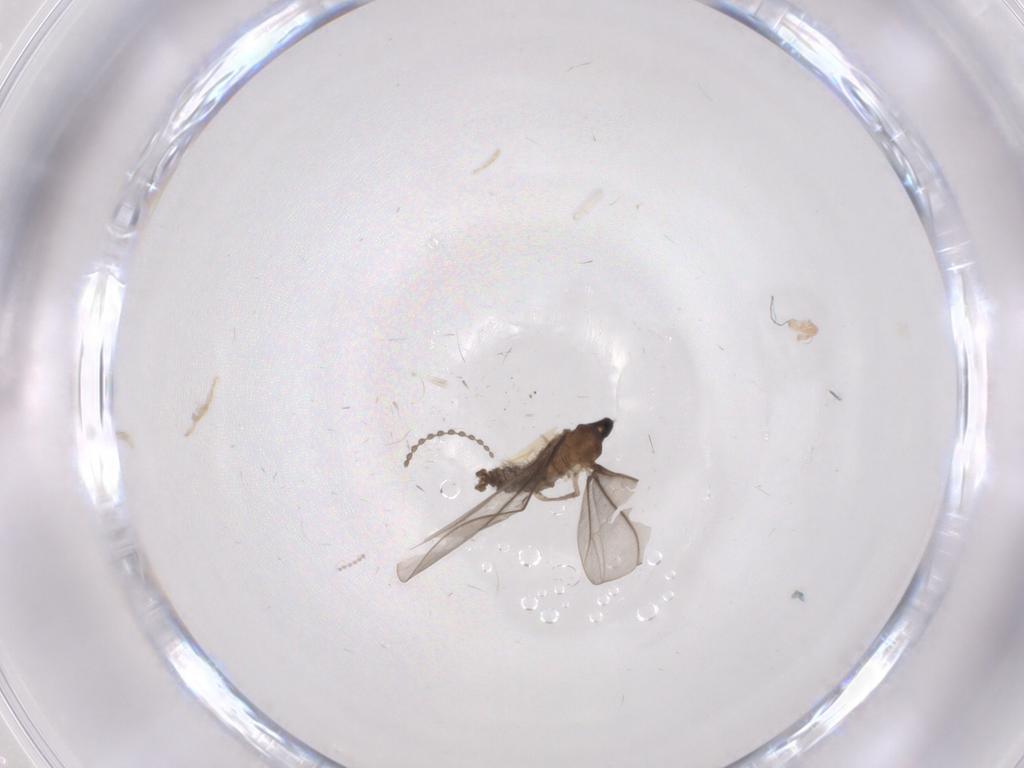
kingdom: Animalia
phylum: Arthropoda
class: Insecta
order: Diptera
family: Cecidomyiidae
